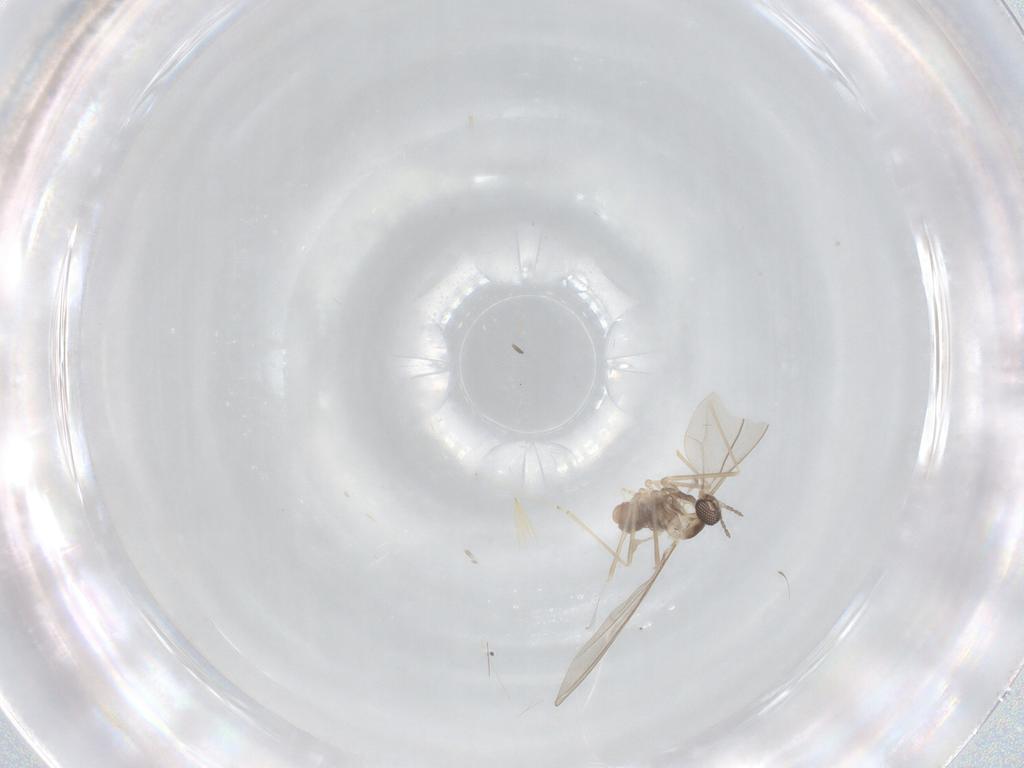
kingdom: Animalia
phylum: Arthropoda
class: Insecta
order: Diptera
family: Cecidomyiidae
